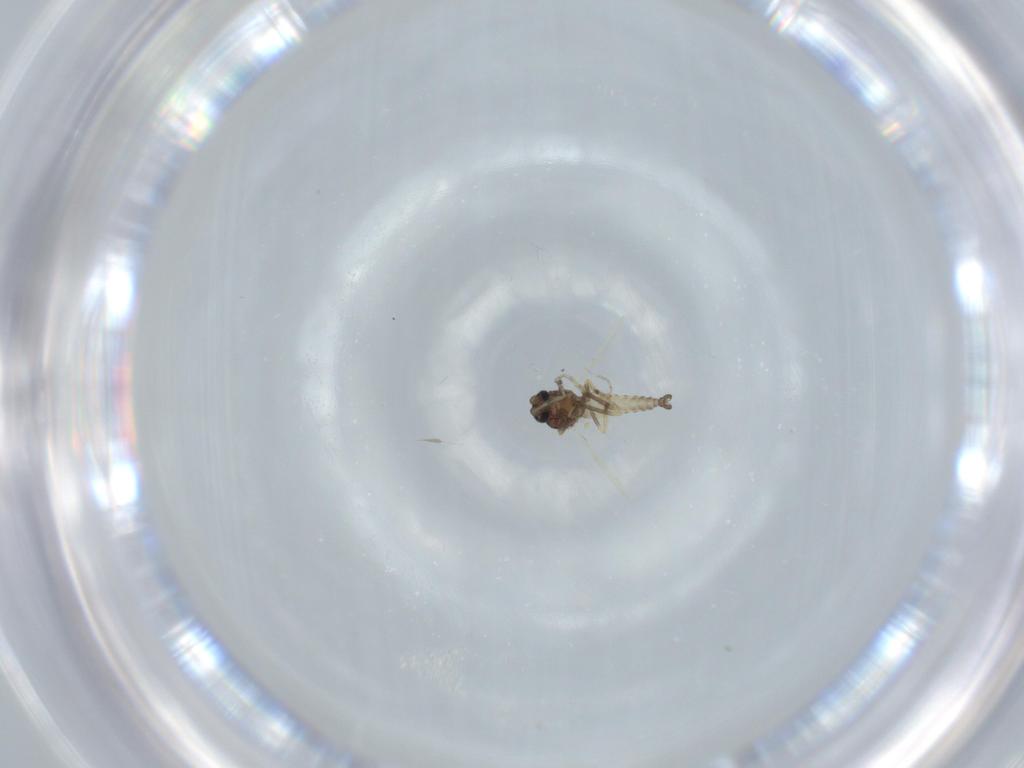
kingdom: Animalia
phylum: Arthropoda
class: Insecta
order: Diptera
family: Ceratopogonidae
